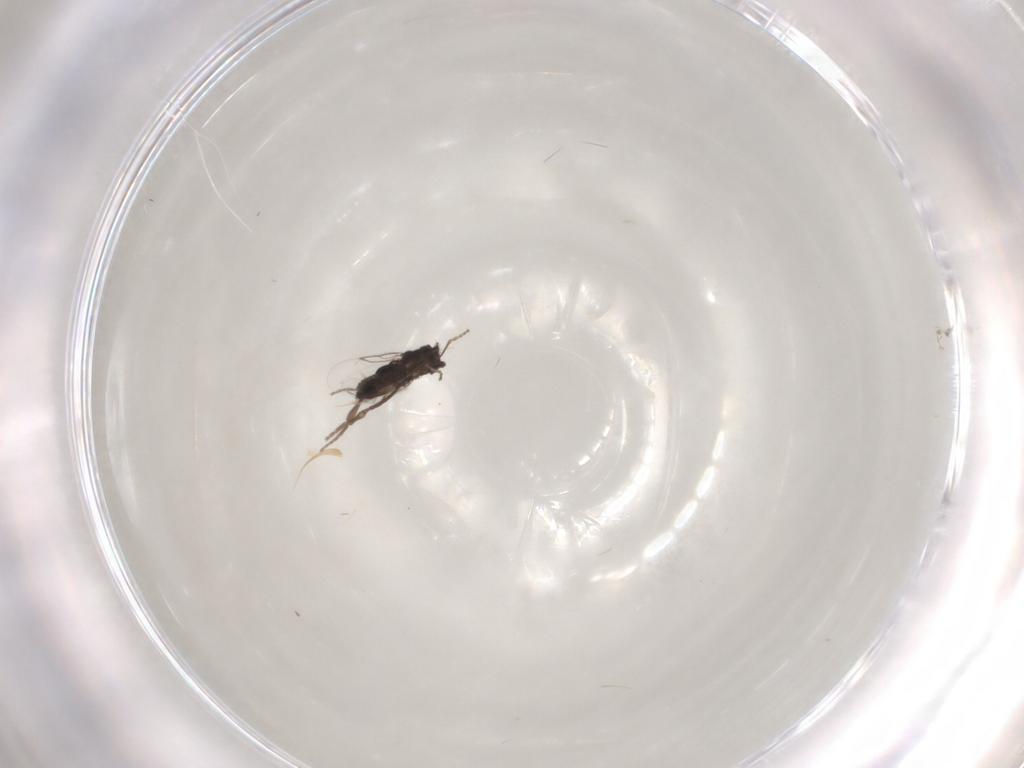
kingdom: Animalia
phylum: Arthropoda
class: Insecta
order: Diptera
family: Phoridae
